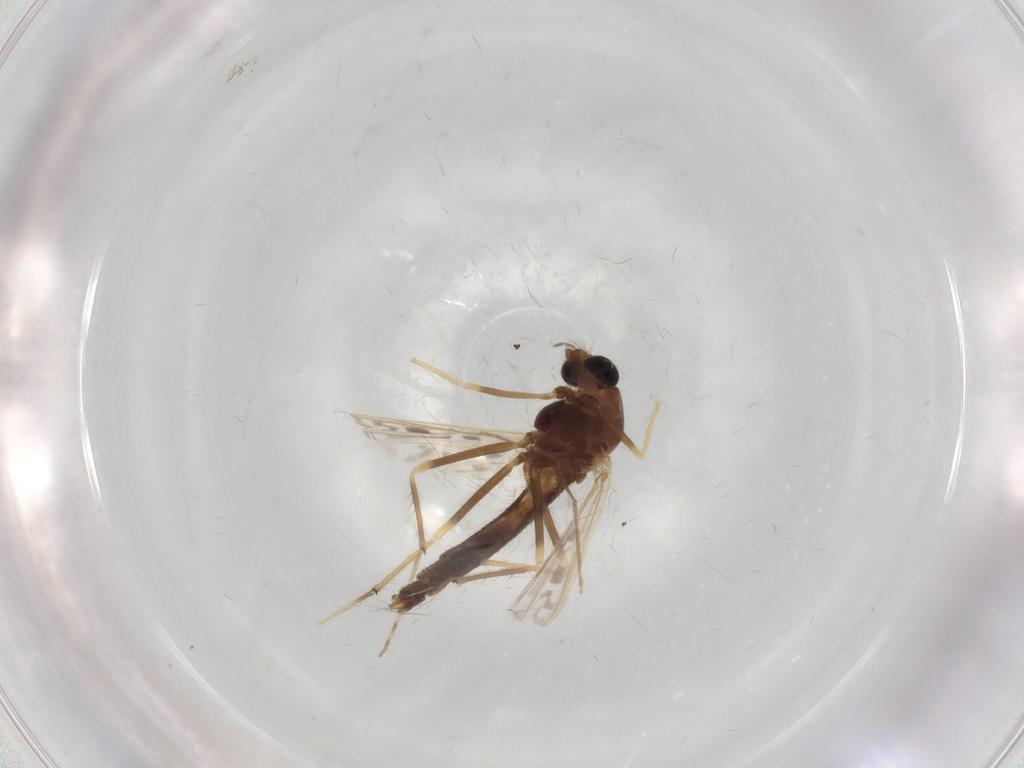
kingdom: Animalia
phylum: Arthropoda
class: Insecta
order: Diptera
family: Chironomidae
